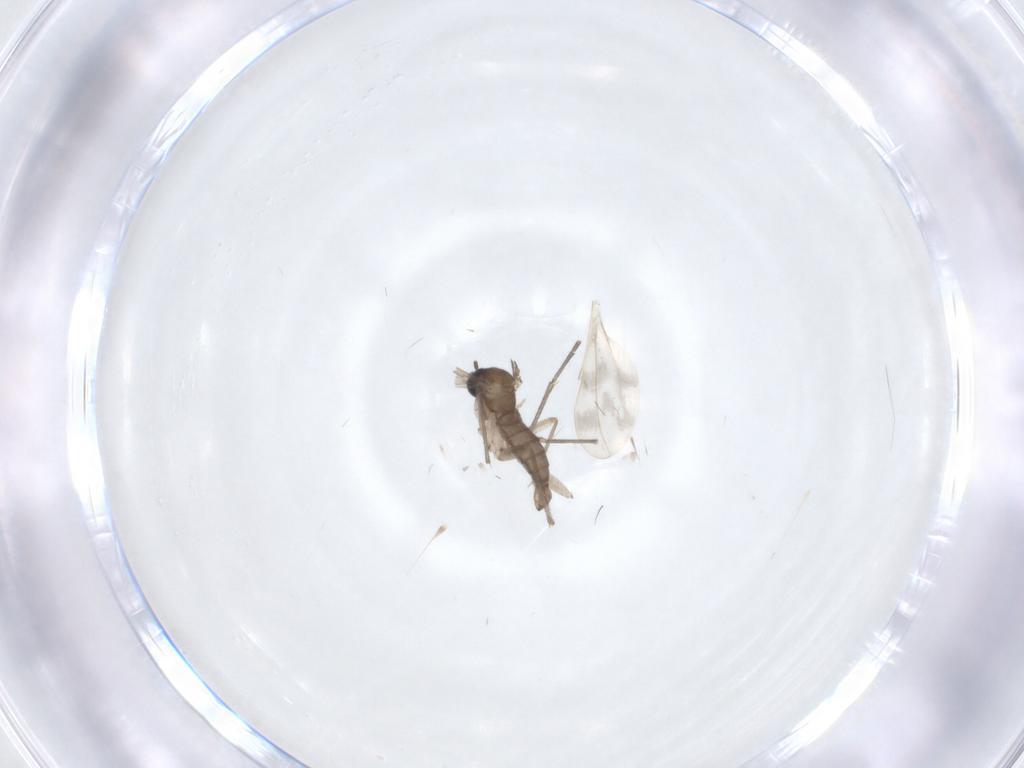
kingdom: Animalia
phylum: Arthropoda
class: Insecta
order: Diptera
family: Sciaridae
